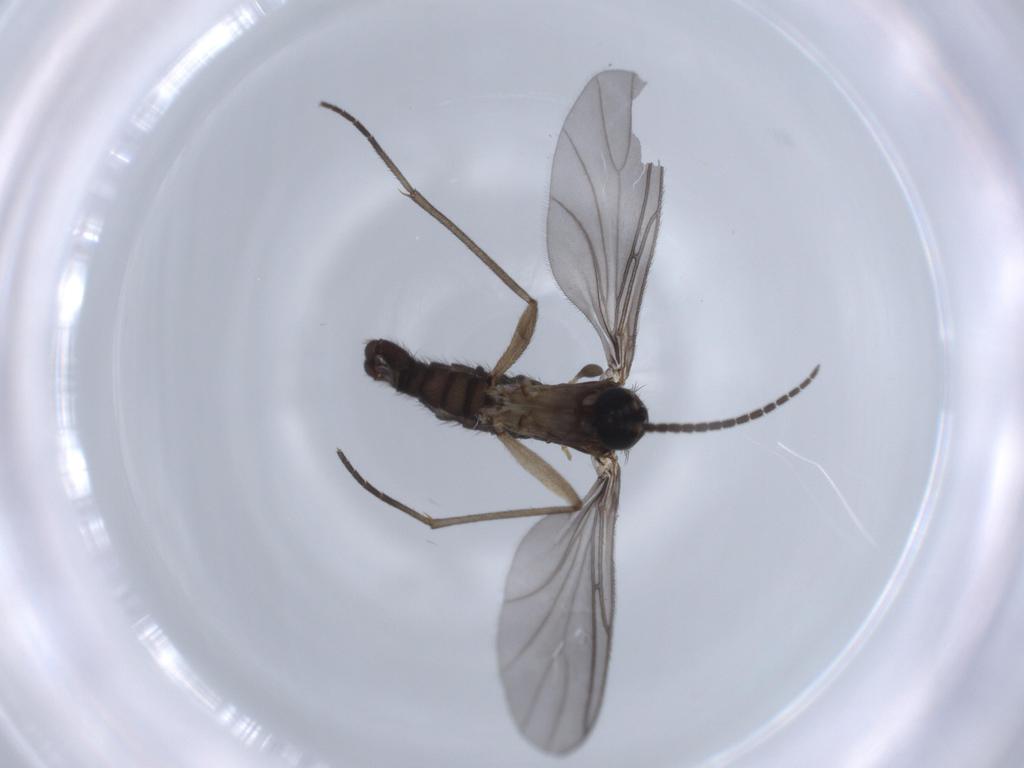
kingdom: Animalia
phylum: Arthropoda
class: Insecta
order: Diptera
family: Sciaridae
